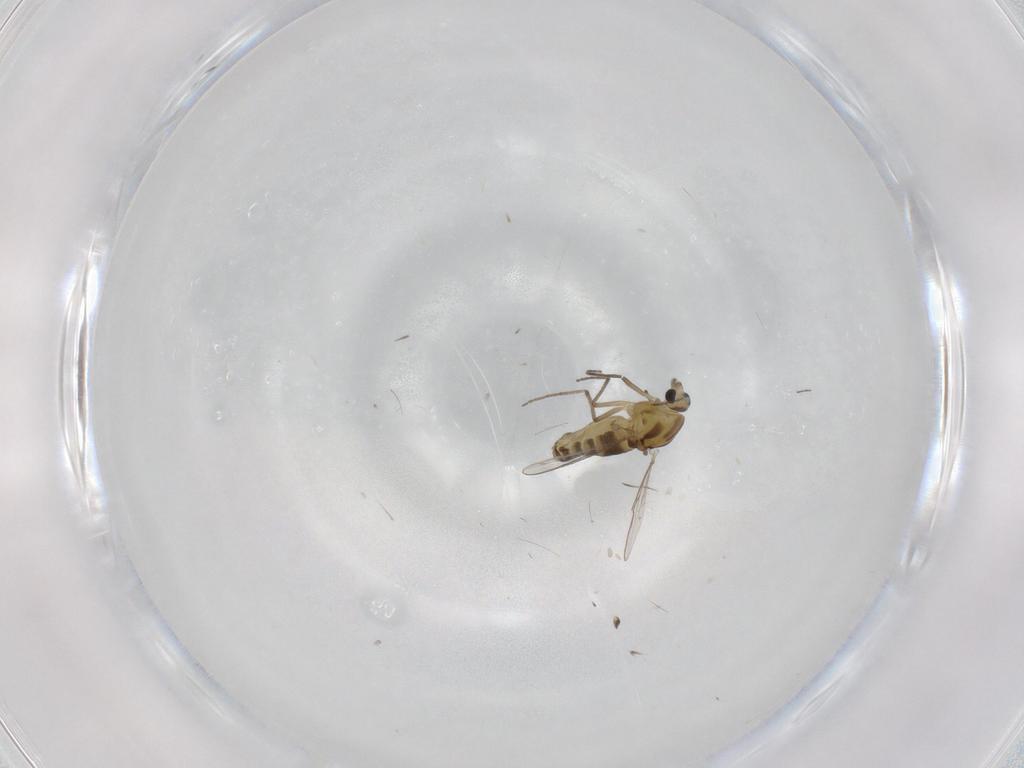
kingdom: Animalia
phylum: Arthropoda
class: Insecta
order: Diptera
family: Chironomidae
